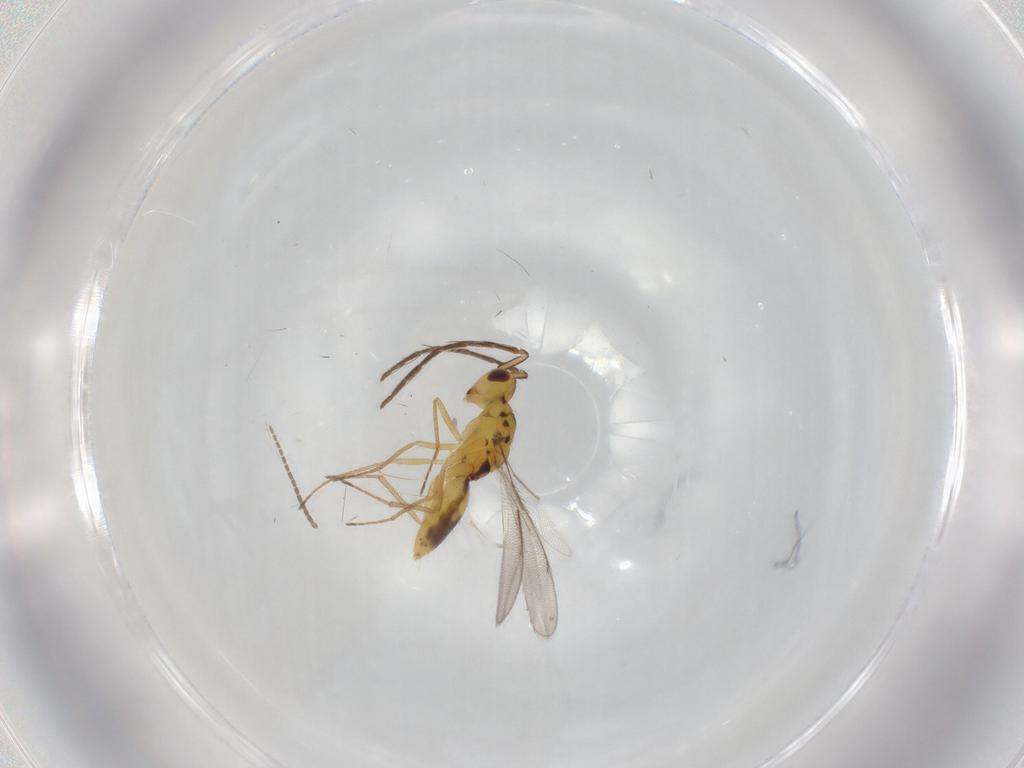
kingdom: Animalia
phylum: Arthropoda
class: Insecta
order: Hymenoptera
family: Eulophidae
